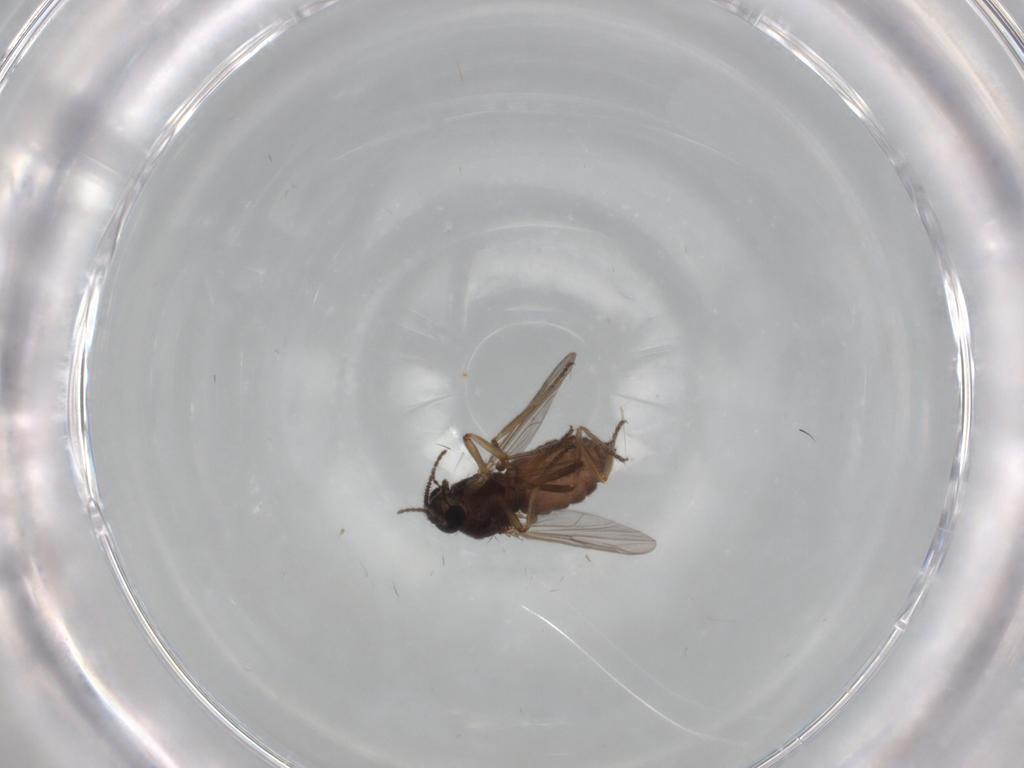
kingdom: Animalia
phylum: Arthropoda
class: Insecta
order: Diptera
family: Ceratopogonidae
